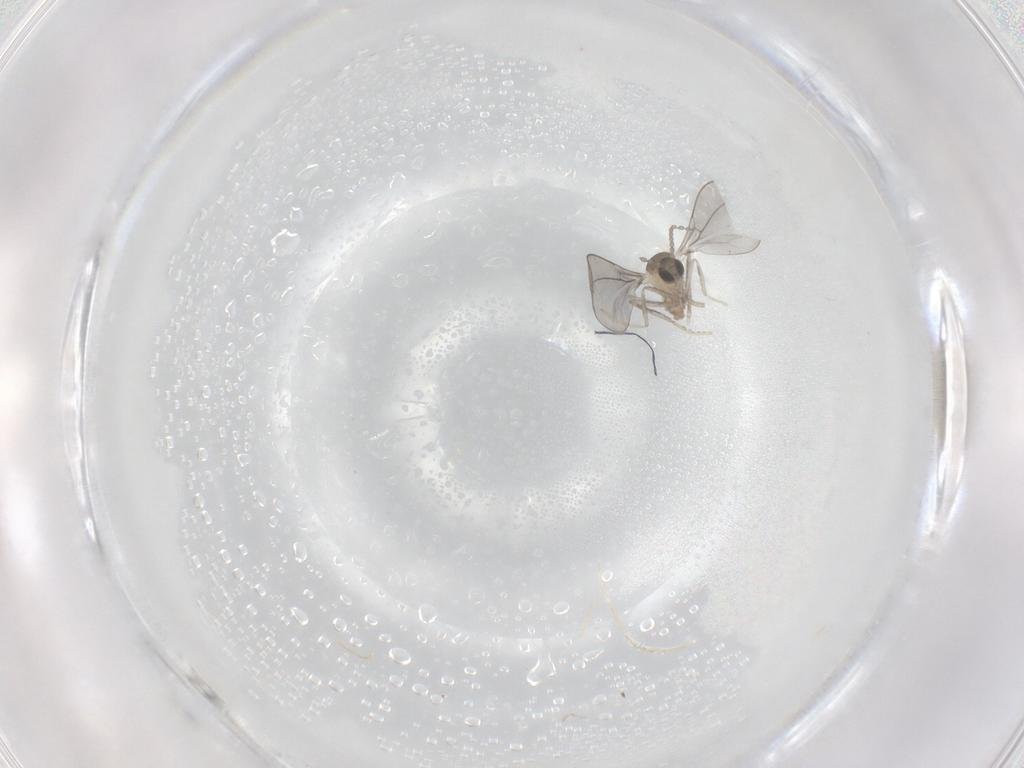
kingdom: Animalia
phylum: Arthropoda
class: Insecta
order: Diptera
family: Cecidomyiidae
